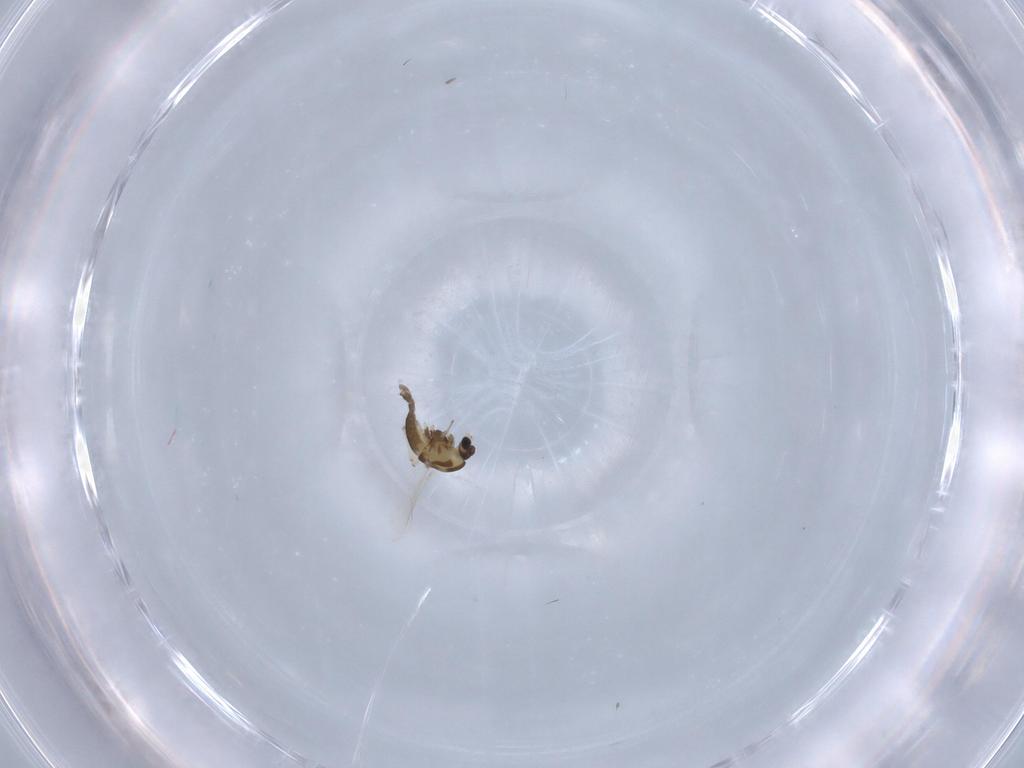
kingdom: Animalia
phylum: Arthropoda
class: Insecta
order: Diptera
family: Chironomidae
